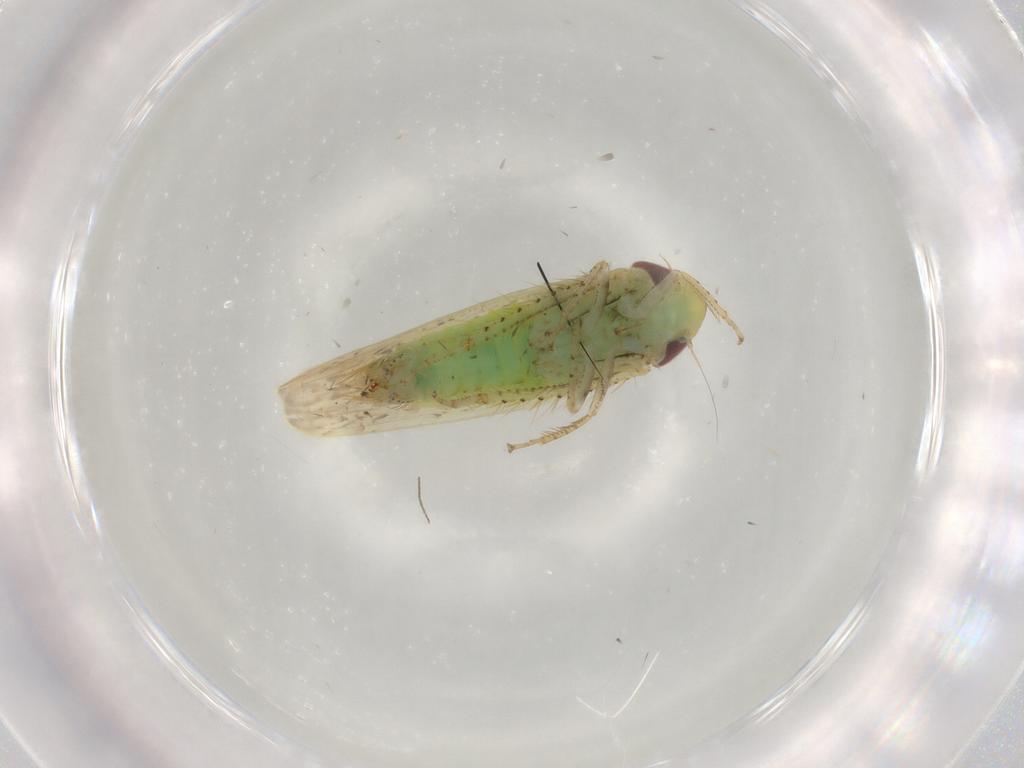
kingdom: Animalia
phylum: Arthropoda
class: Insecta
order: Hemiptera
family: Cicadellidae
